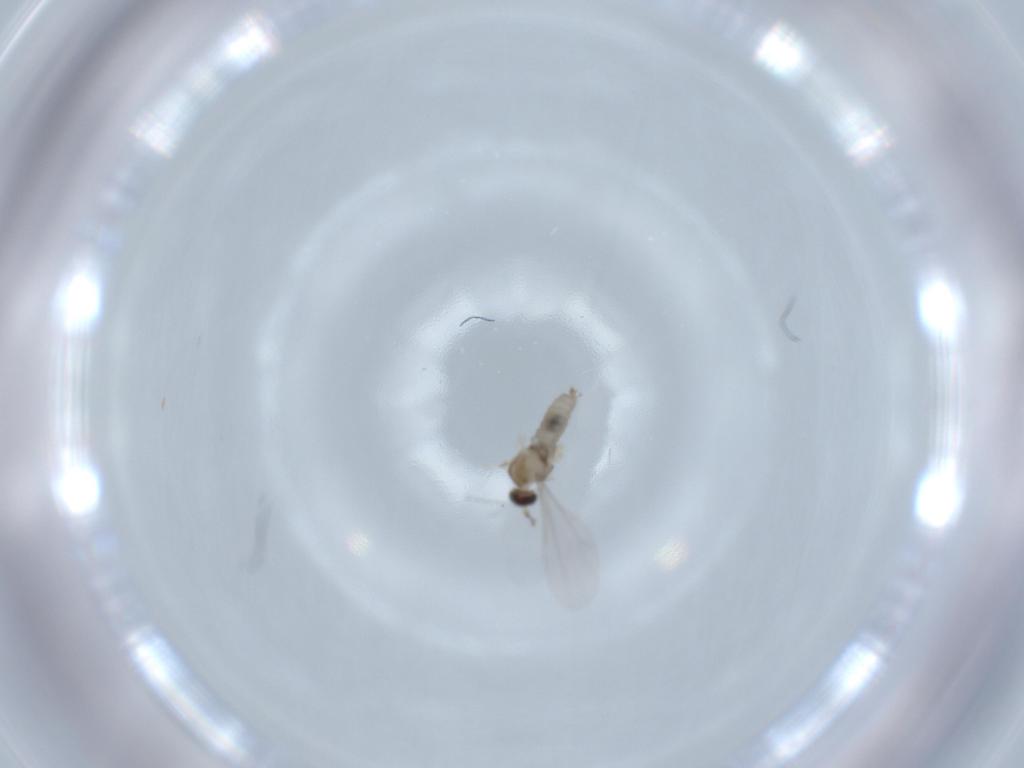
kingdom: Animalia
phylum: Arthropoda
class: Insecta
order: Diptera
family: Cecidomyiidae
